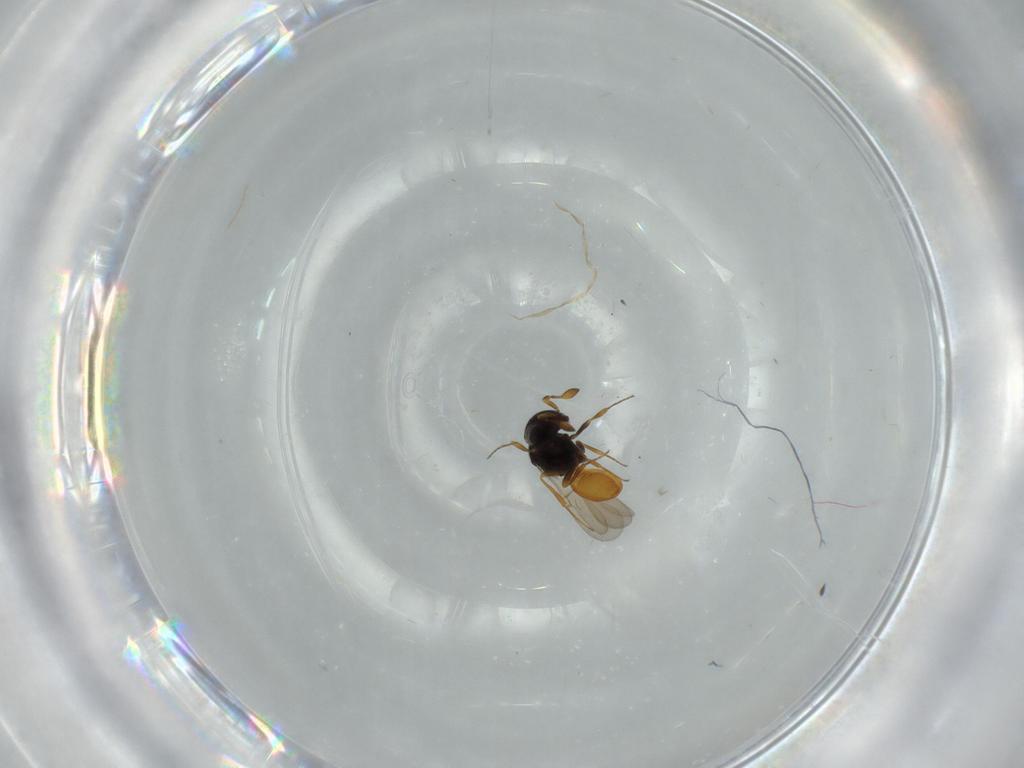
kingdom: Animalia
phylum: Arthropoda
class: Insecta
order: Hymenoptera
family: Scelionidae
